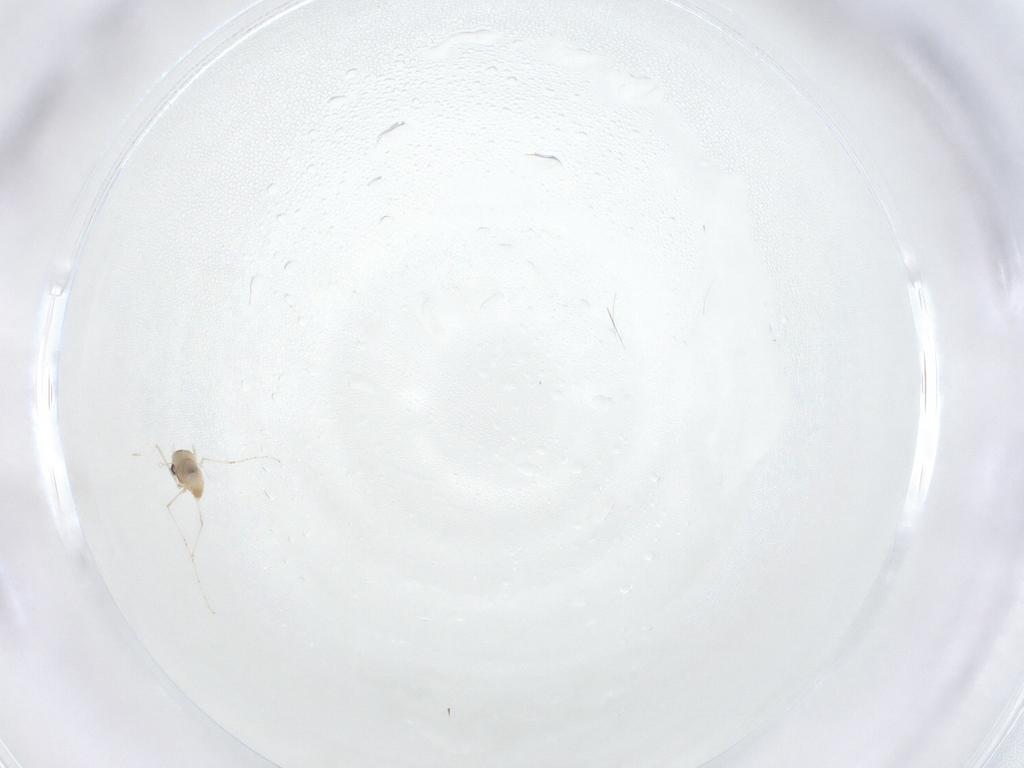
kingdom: Animalia
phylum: Arthropoda
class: Insecta
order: Diptera
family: Cecidomyiidae
